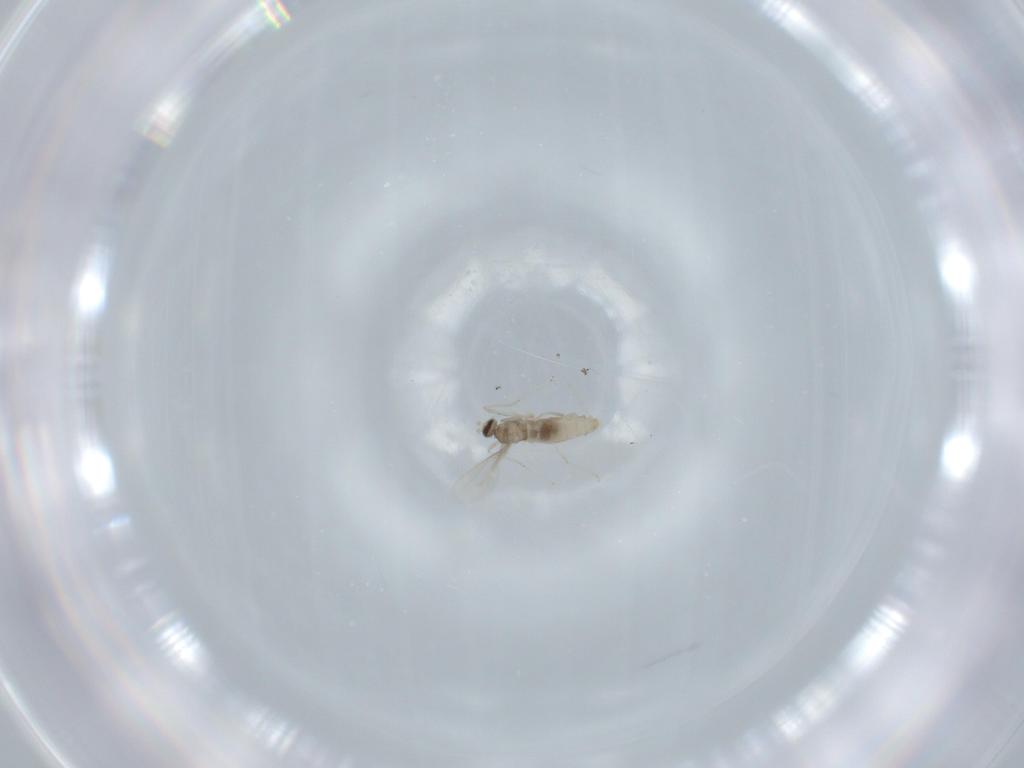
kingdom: Animalia
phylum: Arthropoda
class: Insecta
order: Diptera
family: Cecidomyiidae
